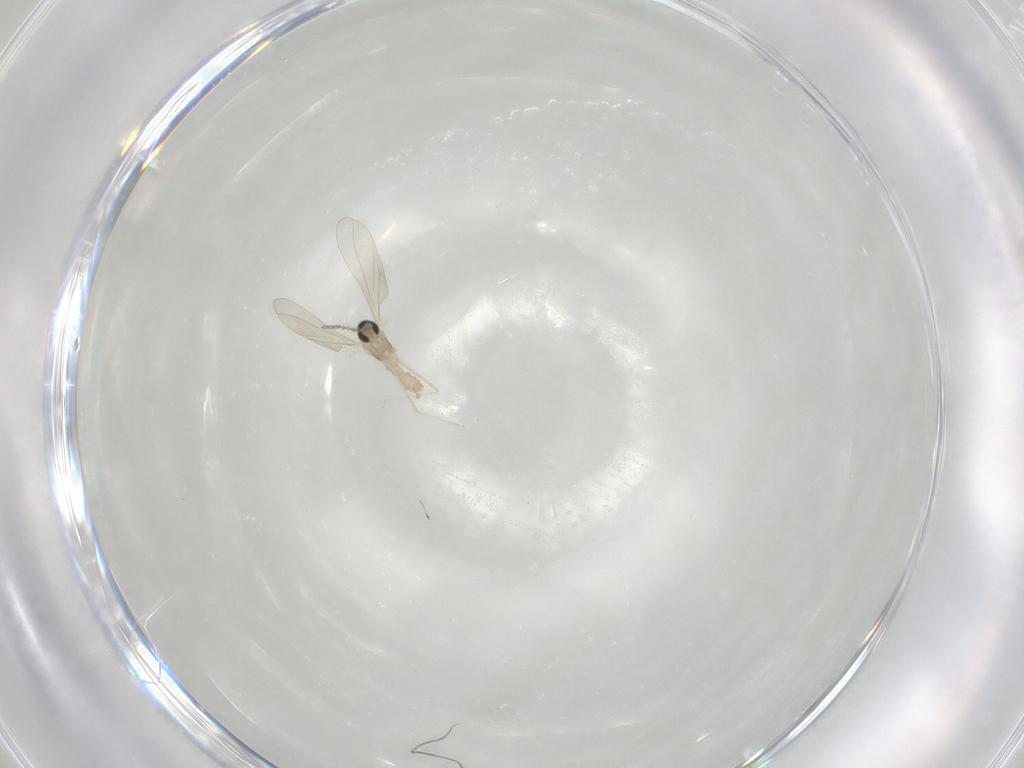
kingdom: Animalia
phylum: Arthropoda
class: Insecta
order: Diptera
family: Cecidomyiidae
